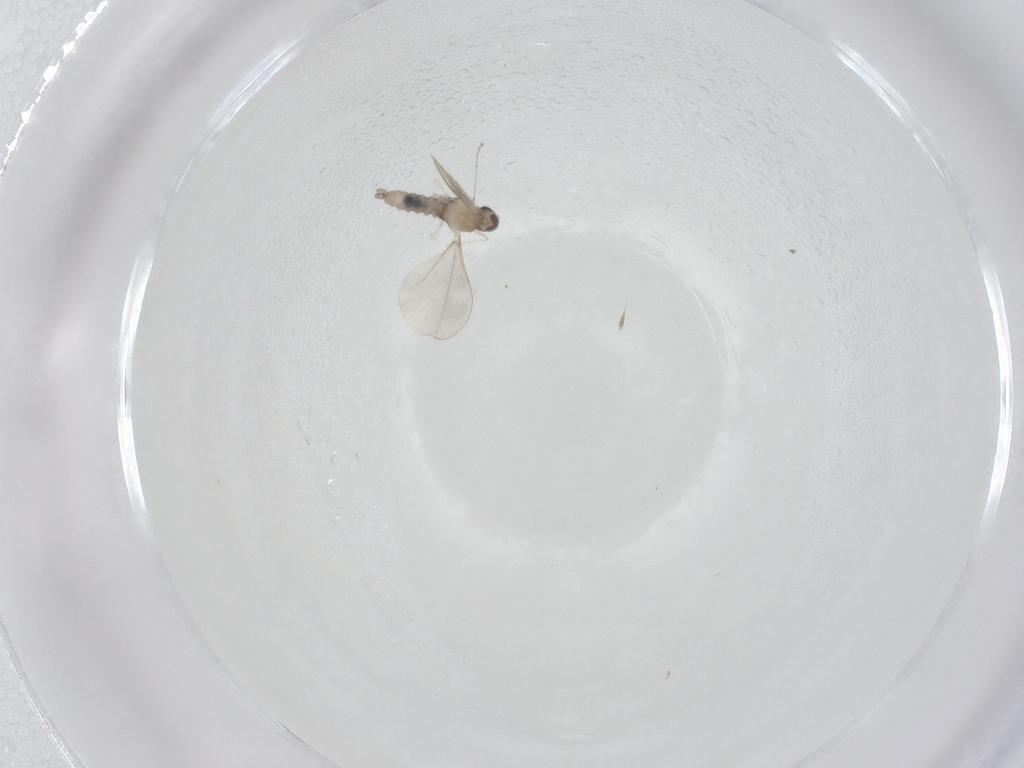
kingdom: Animalia
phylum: Arthropoda
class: Insecta
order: Diptera
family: Cecidomyiidae
